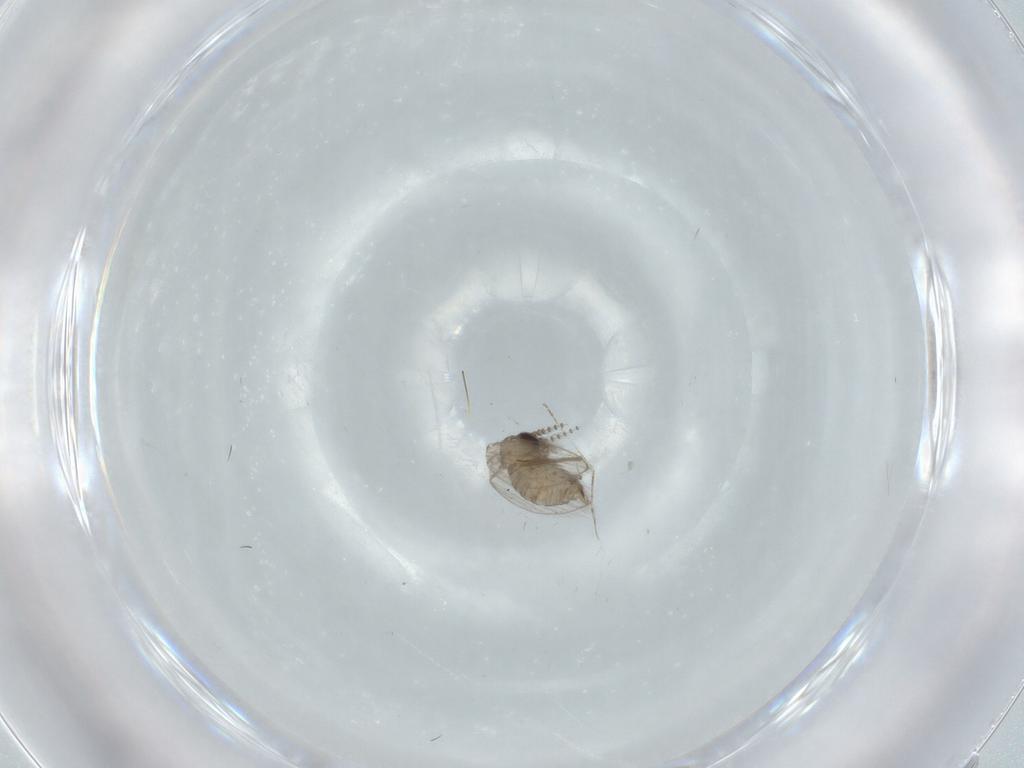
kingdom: Animalia
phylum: Arthropoda
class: Insecta
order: Diptera
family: Psychodidae
